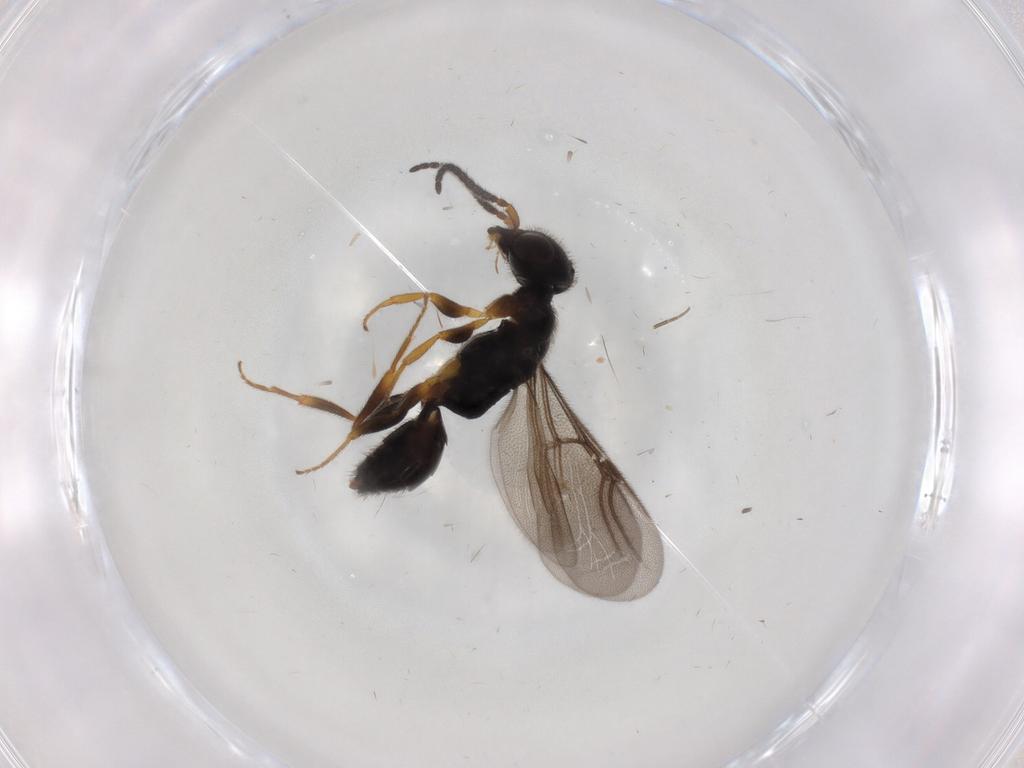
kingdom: Animalia
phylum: Arthropoda
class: Insecta
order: Hymenoptera
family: Bethylidae
